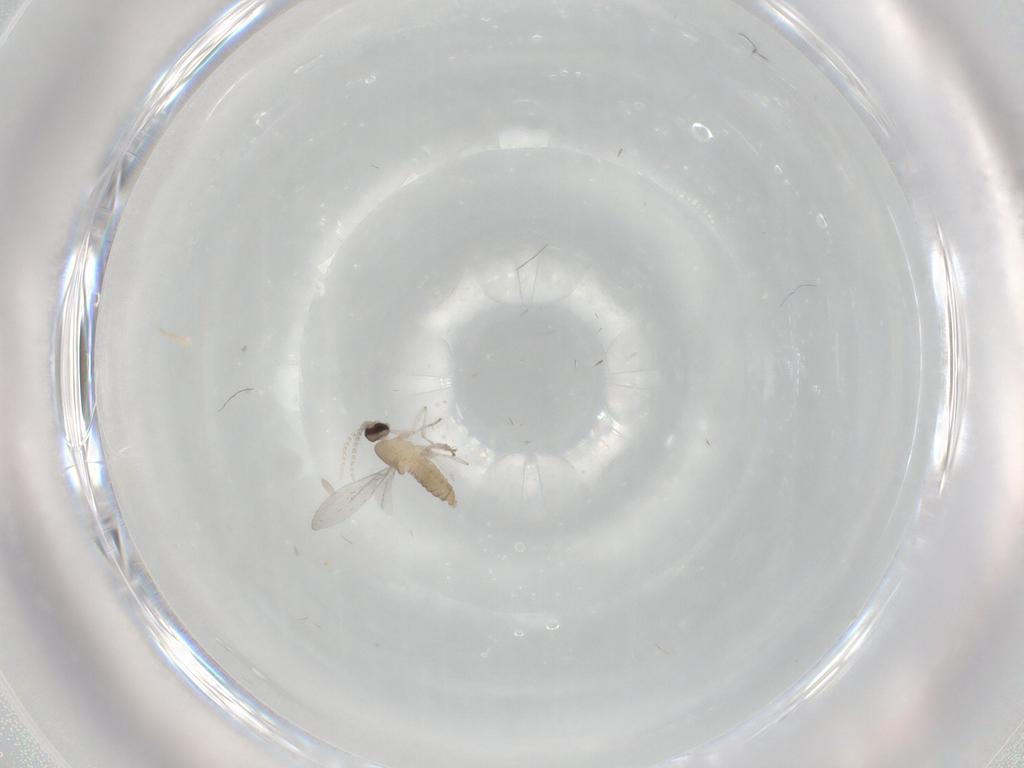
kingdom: Animalia
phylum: Arthropoda
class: Insecta
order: Diptera
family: Cecidomyiidae
